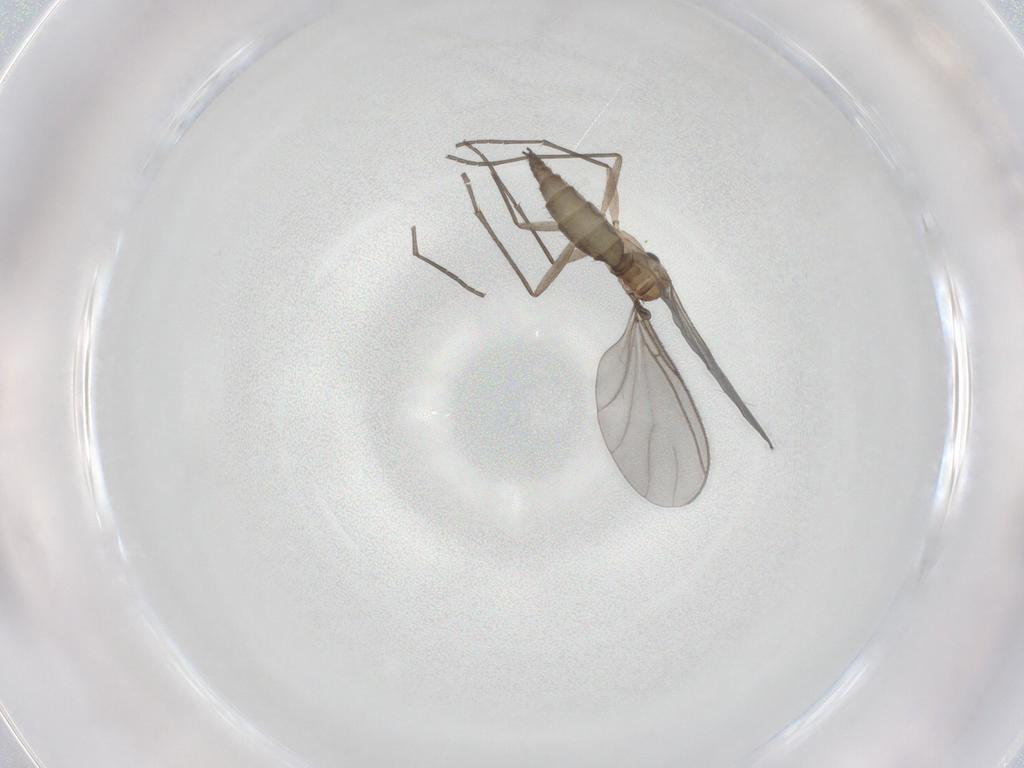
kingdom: Animalia
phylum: Arthropoda
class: Insecta
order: Diptera
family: Sciaridae
